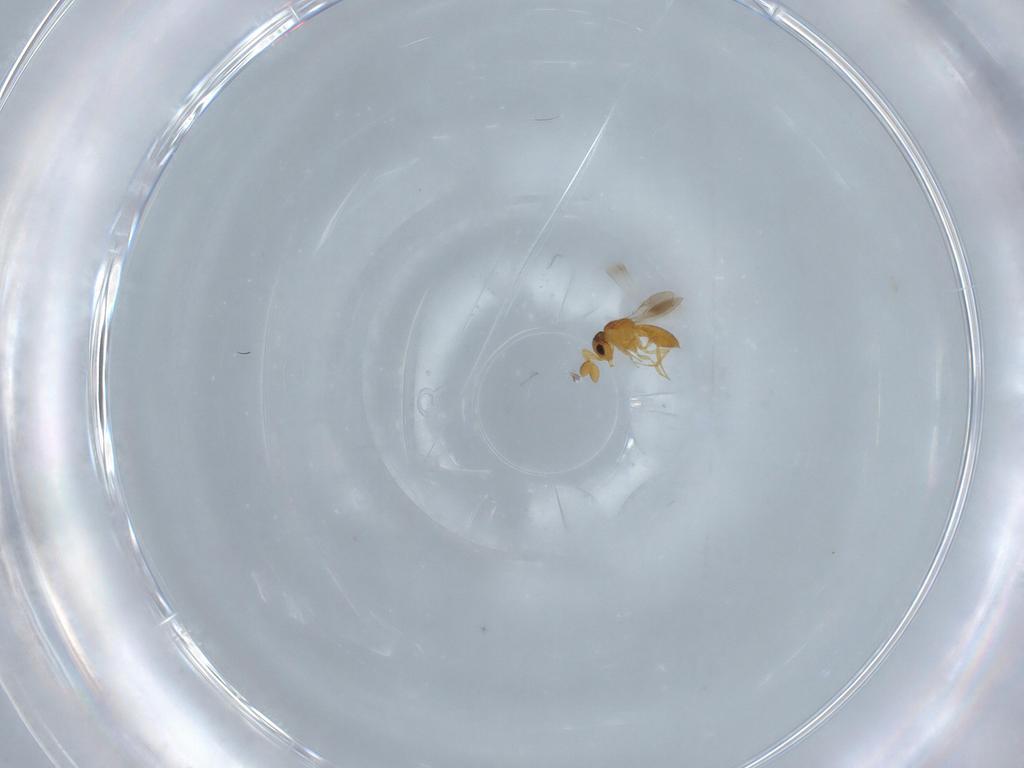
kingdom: Animalia
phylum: Arthropoda
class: Insecta
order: Hymenoptera
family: Scelionidae
